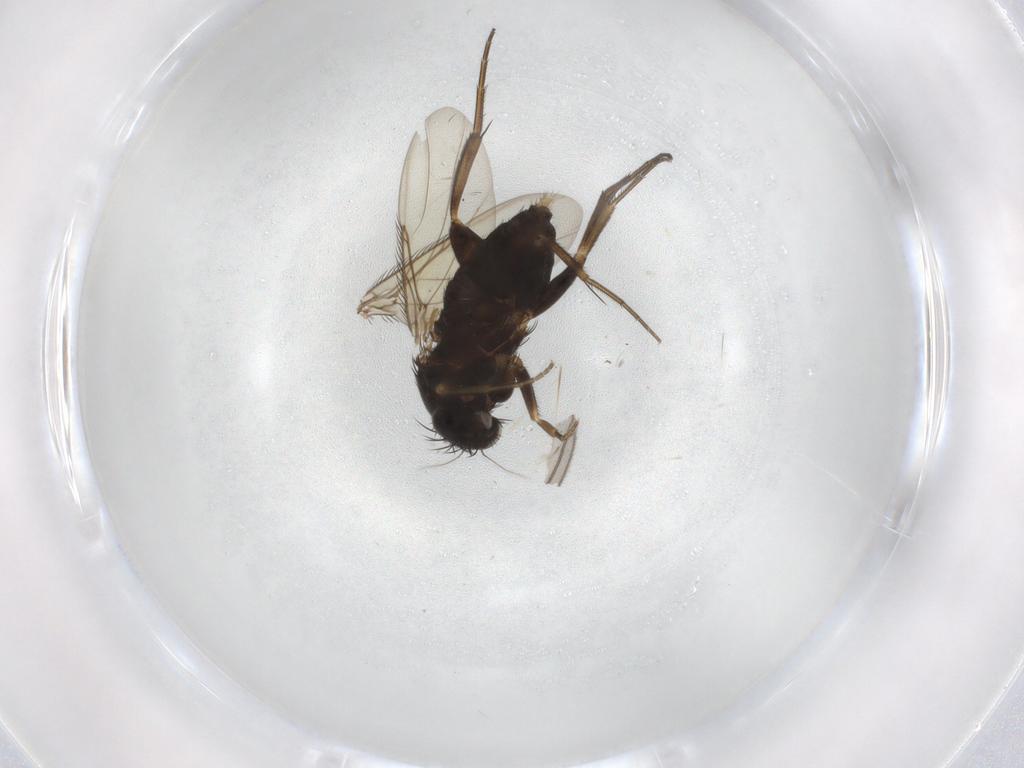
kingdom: Animalia
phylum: Arthropoda
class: Insecta
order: Diptera
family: Phoridae
